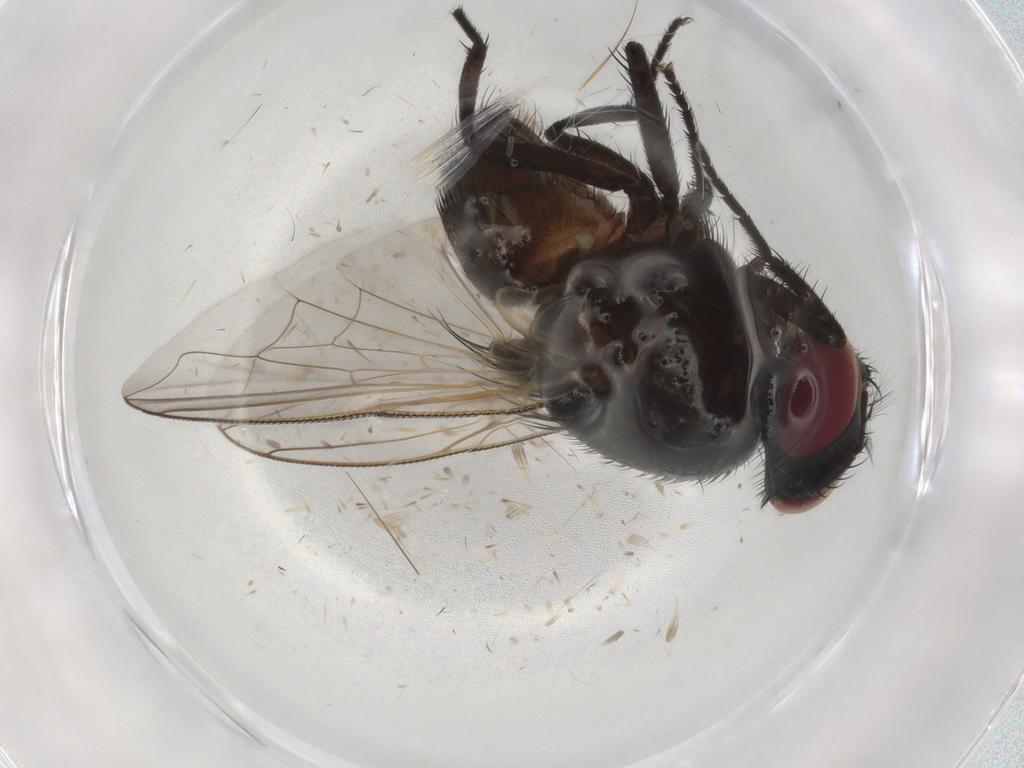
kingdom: Animalia
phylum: Arthropoda
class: Insecta
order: Diptera
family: Muscidae
